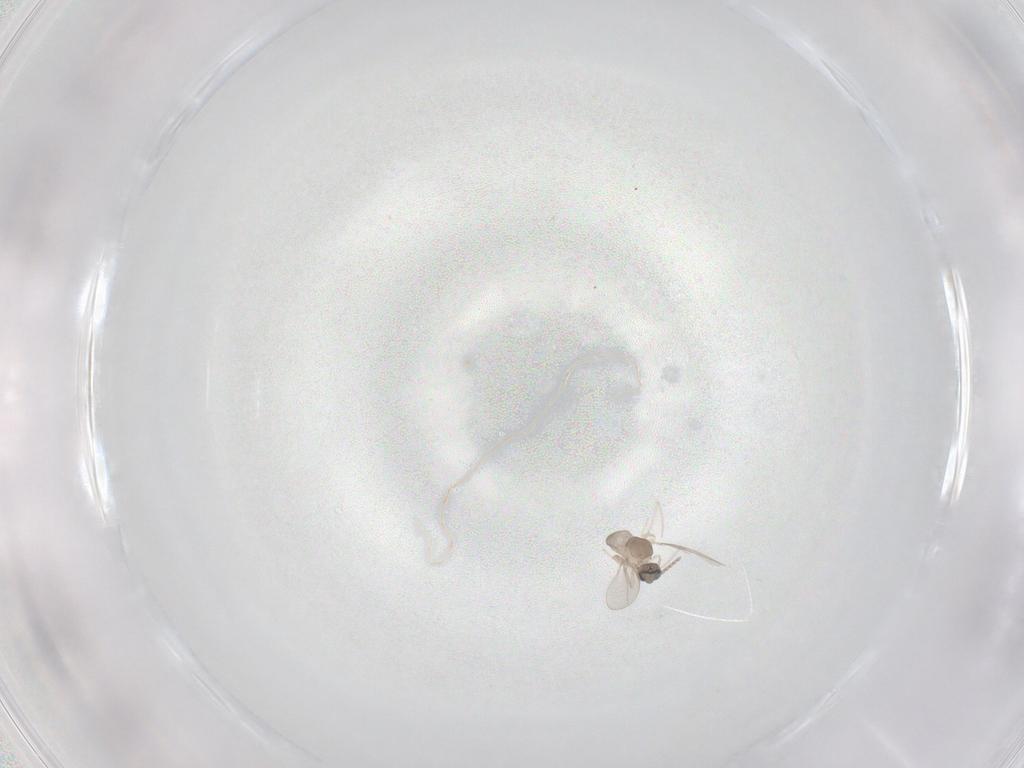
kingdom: Animalia
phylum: Arthropoda
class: Insecta
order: Diptera
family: Cecidomyiidae
